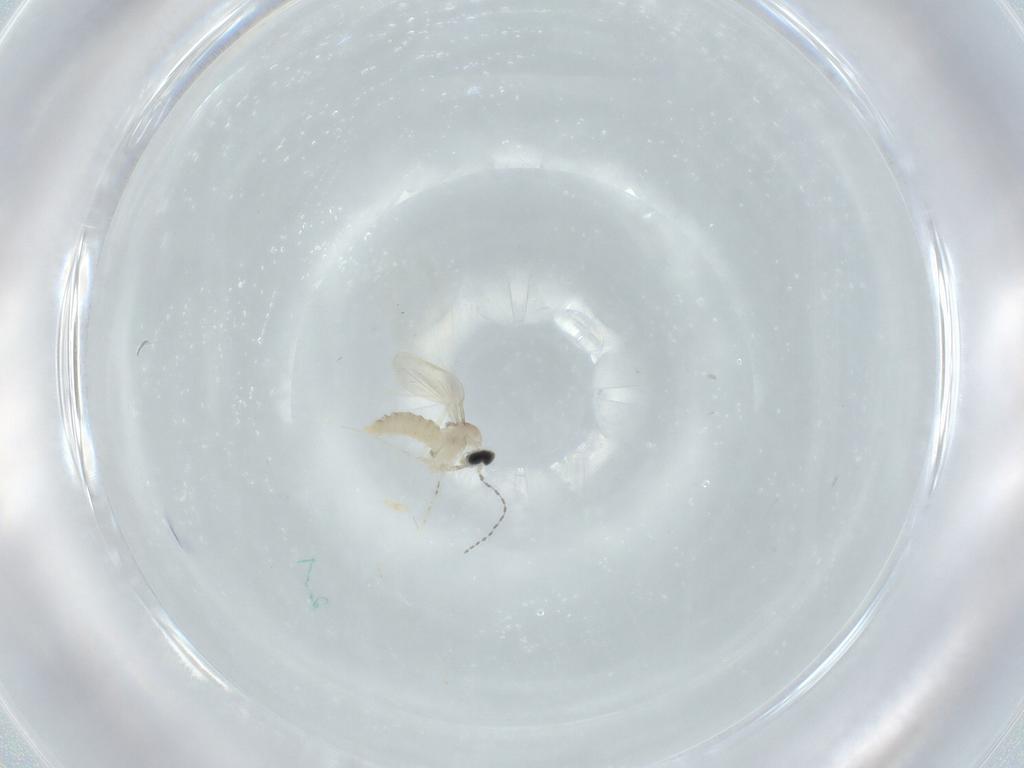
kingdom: Animalia
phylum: Arthropoda
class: Insecta
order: Diptera
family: Cecidomyiidae
